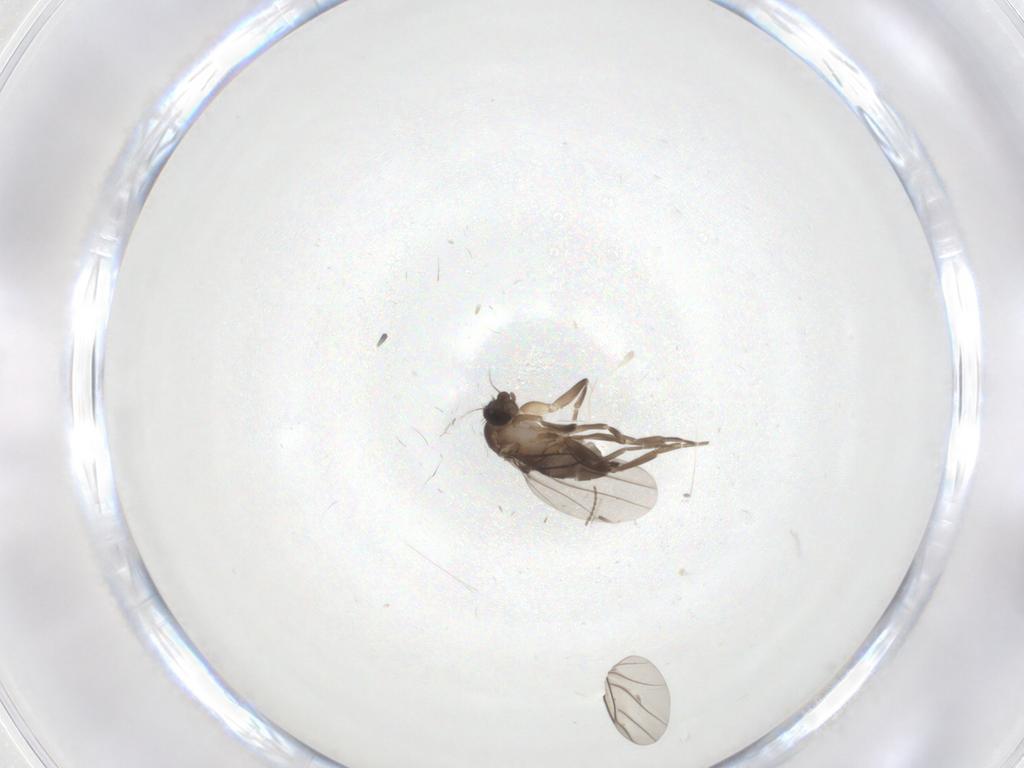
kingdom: Animalia
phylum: Arthropoda
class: Insecta
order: Diptera
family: Phoridae
